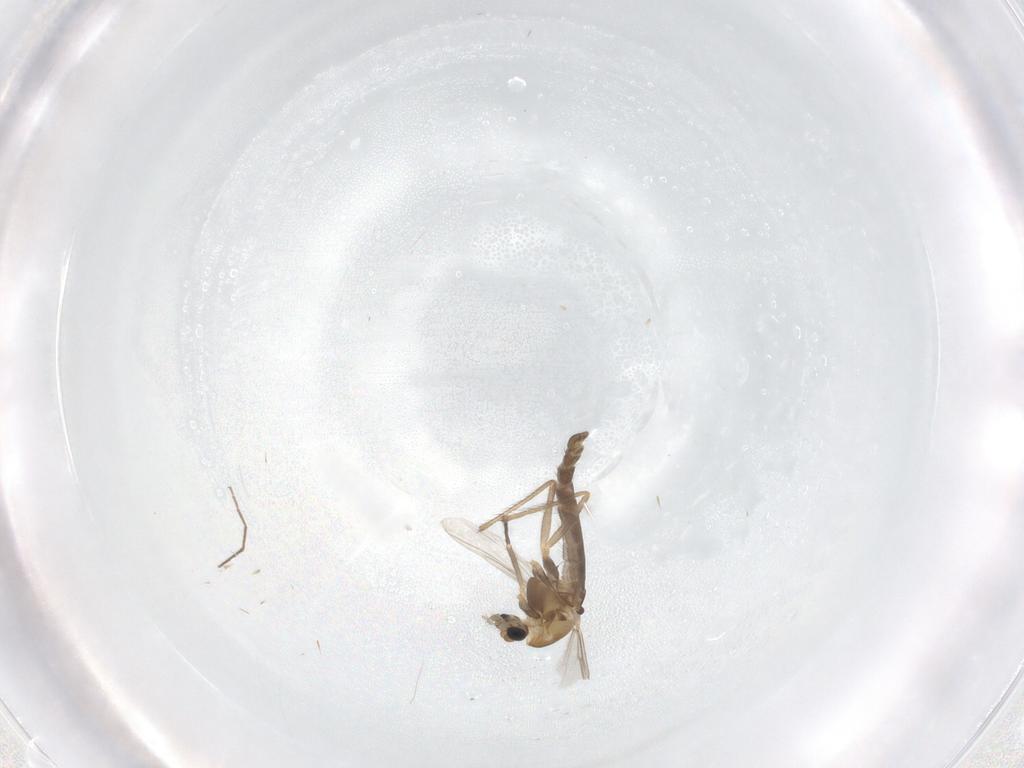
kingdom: Animalia
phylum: Arthropoda
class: Insecta
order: Diptera
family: Chironomidae
